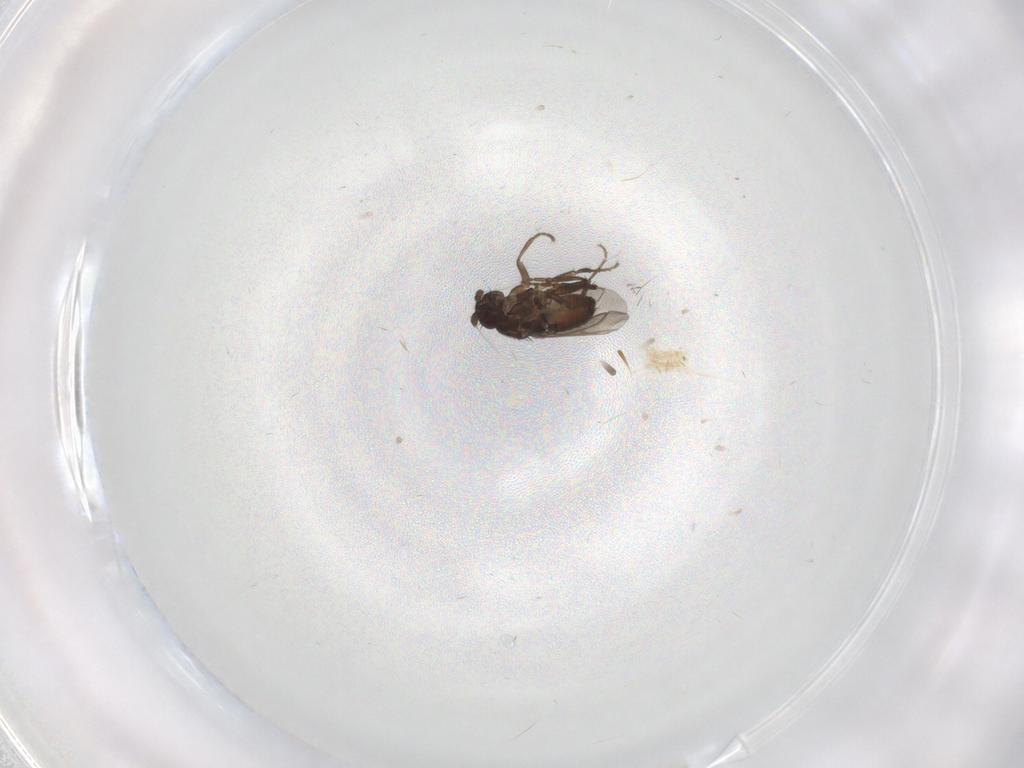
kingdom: Animalia
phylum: Arthropoda
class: Insecta
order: Diptera
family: Sphaeroceridae
